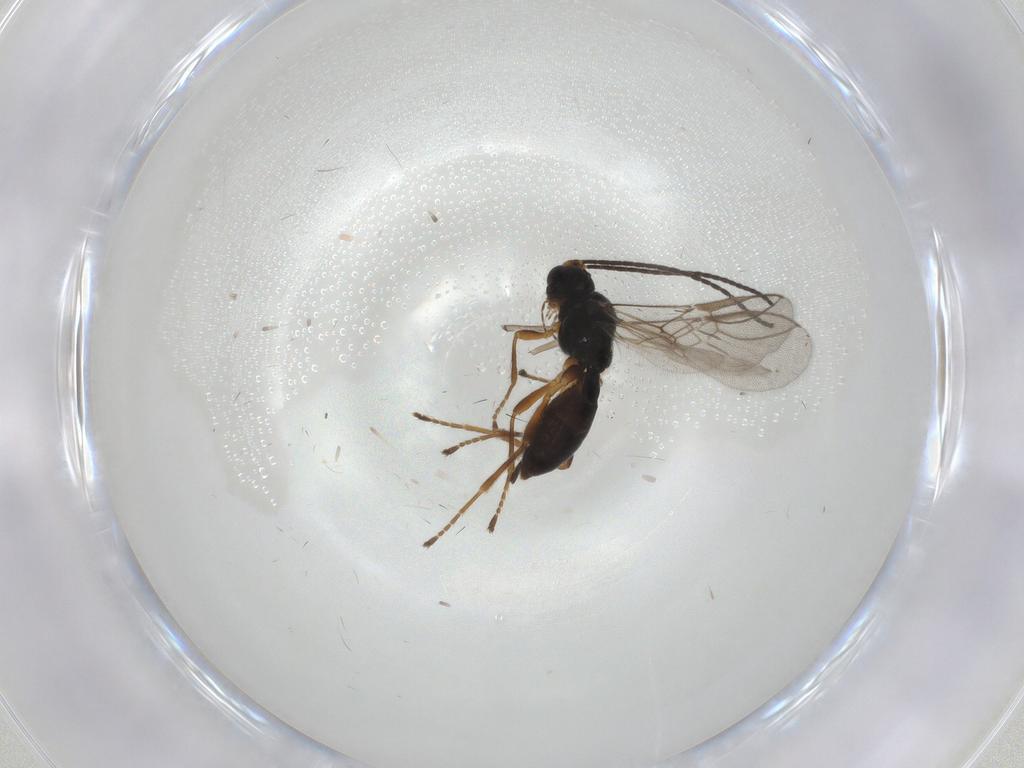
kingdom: Animalia
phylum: Arthropoda
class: Insecta
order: Hymenoptera
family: Braconidae
